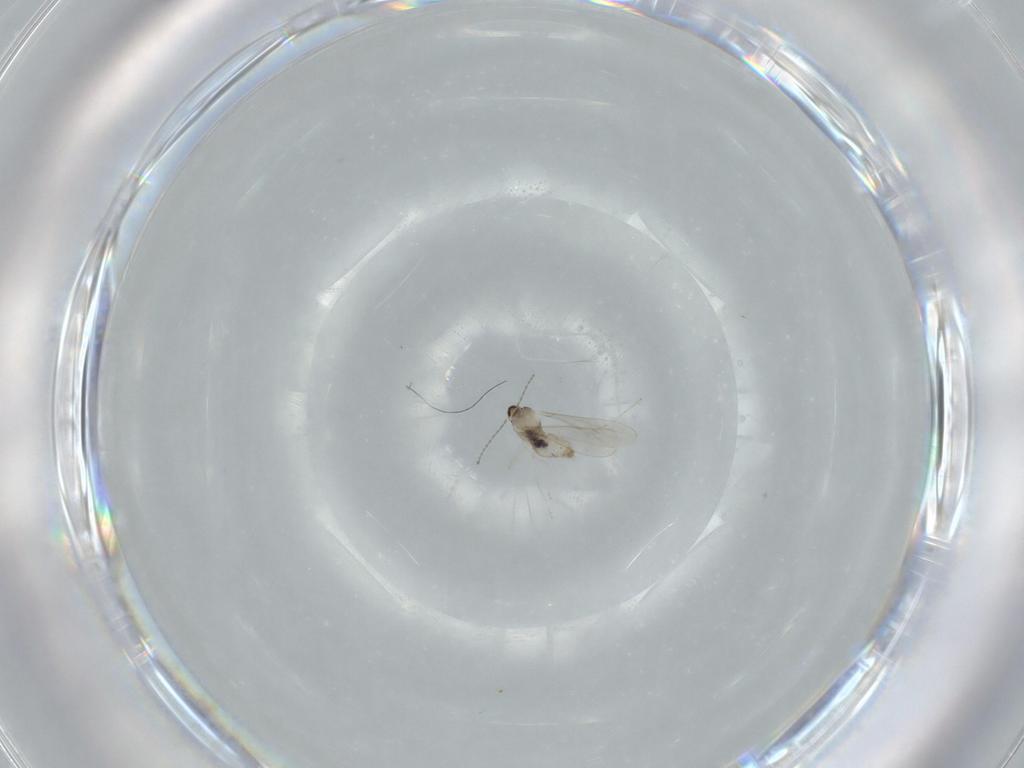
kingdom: Animalia
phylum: Arthropoda
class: Insecta
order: Diptera
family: Cecidomyiidae
